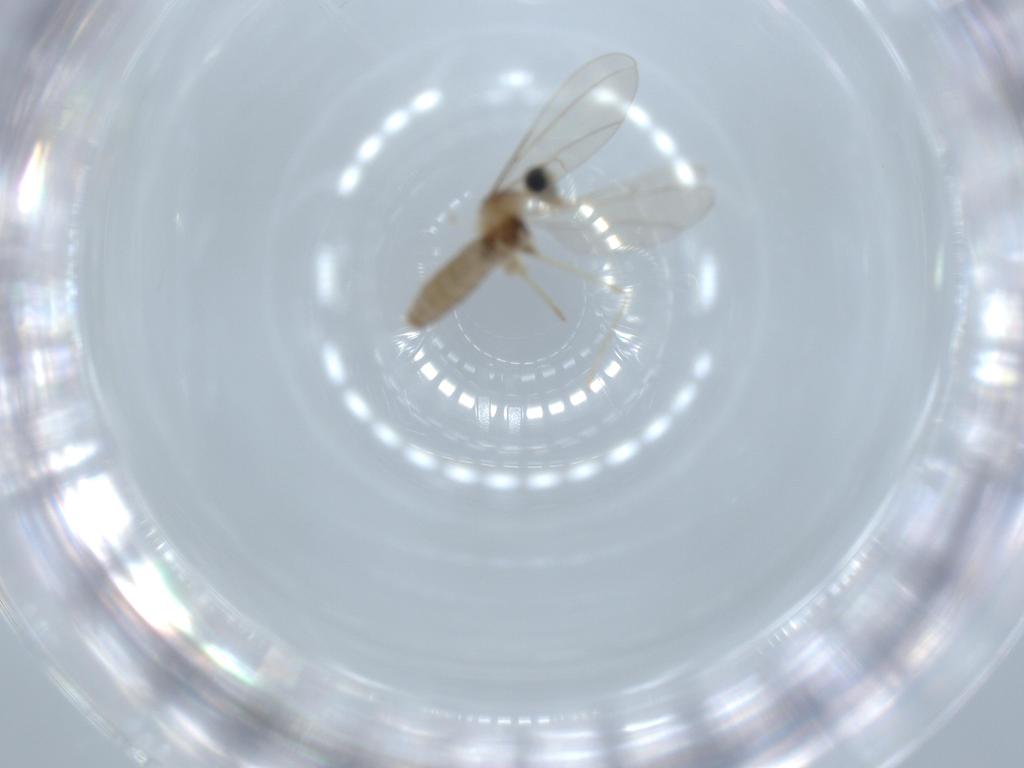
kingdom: Animalia
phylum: Arthropoda
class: Insecta
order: Diptera
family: Cecidomyiidae
